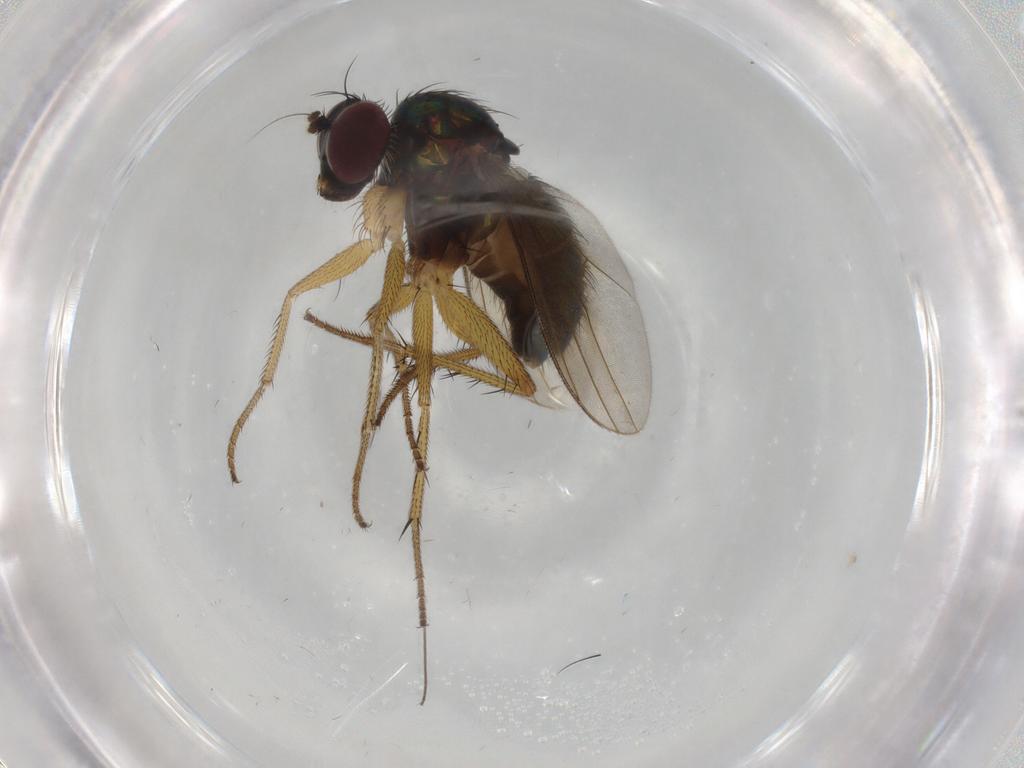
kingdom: Animalia
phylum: Arthropoda
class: Insecta
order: Diptera
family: Dolichopodidae
